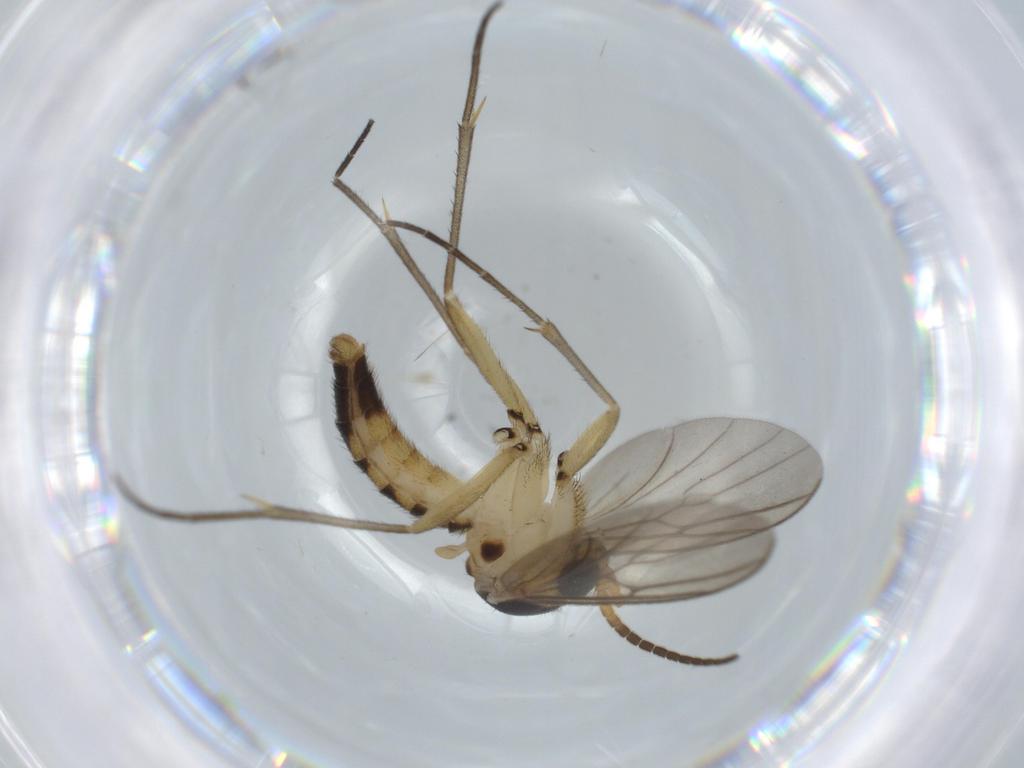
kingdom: Animalia
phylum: Arthropoda
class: Insecta
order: Diptera
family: Mycetophilidae
